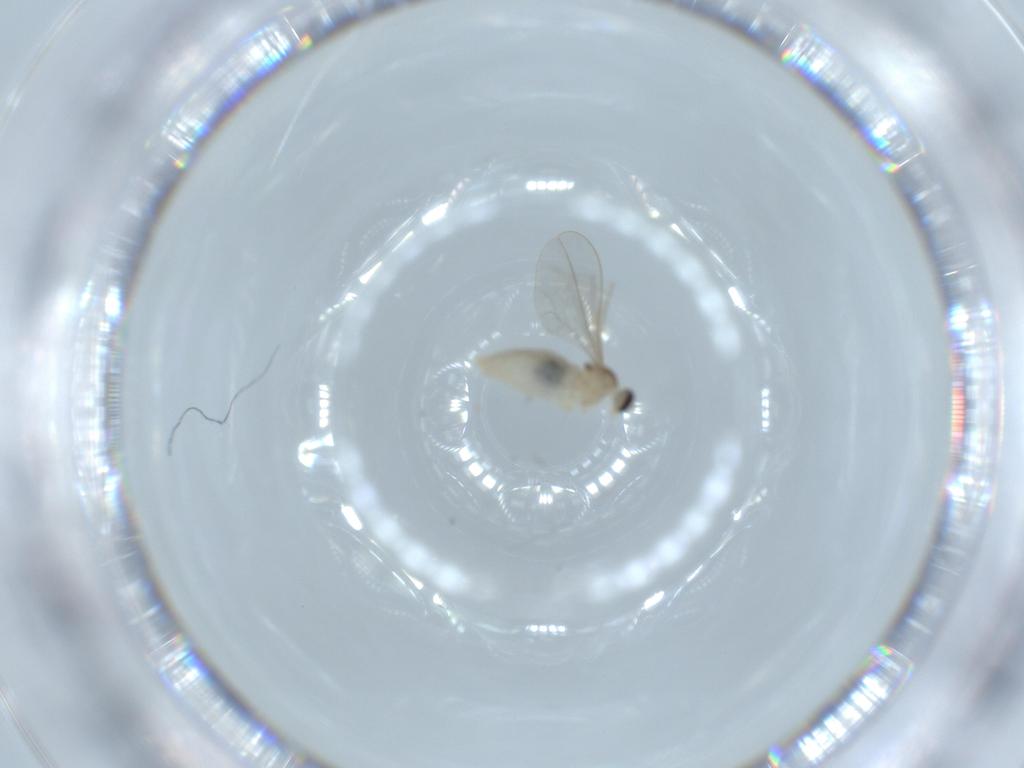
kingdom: Animalia
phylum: Arthropoda
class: Insecta
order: Diptera
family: Cecidomyiidae
